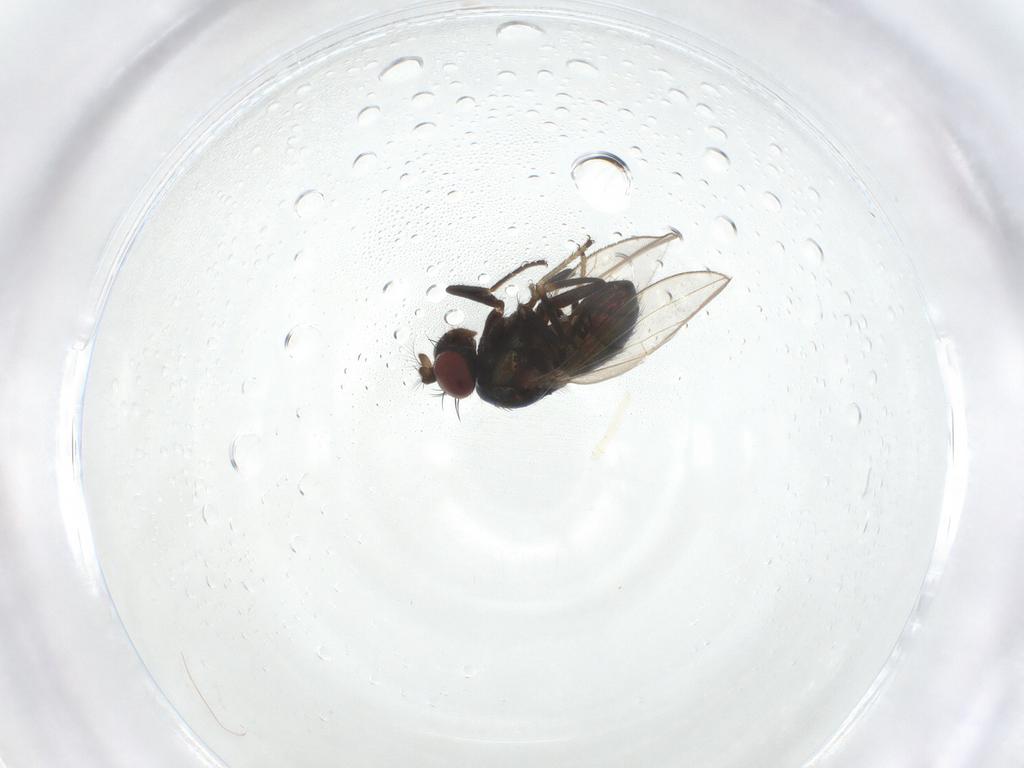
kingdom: Animalia
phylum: Arthropoda
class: Insecta
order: Diptera
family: Ephydridae
